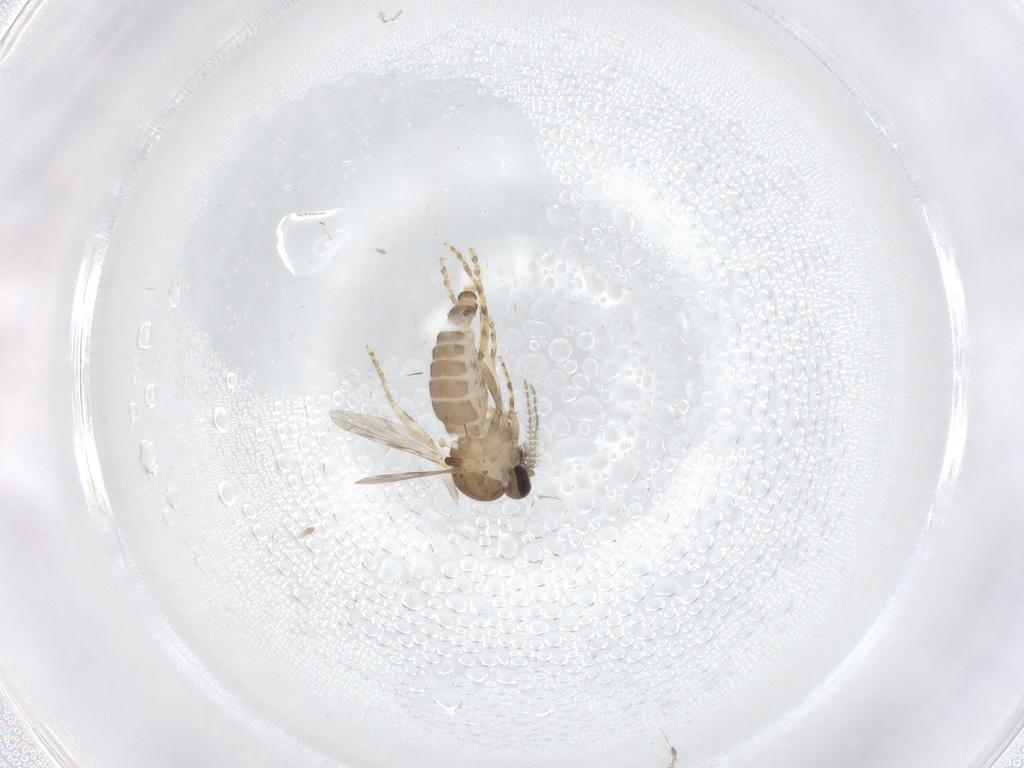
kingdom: Animalia
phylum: Arthropoda
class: Insecta
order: Diptera
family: Ceratopogonidae
